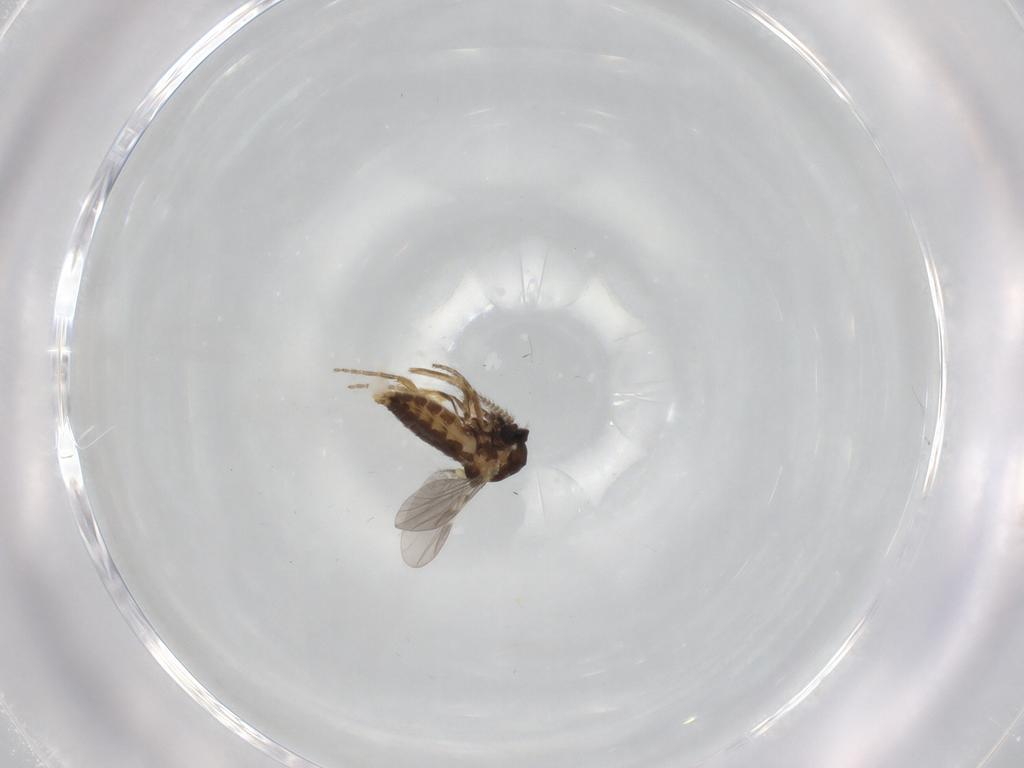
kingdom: Animalia
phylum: Arthropoda
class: Insecta
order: Diptera
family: Ceratopogonidae
